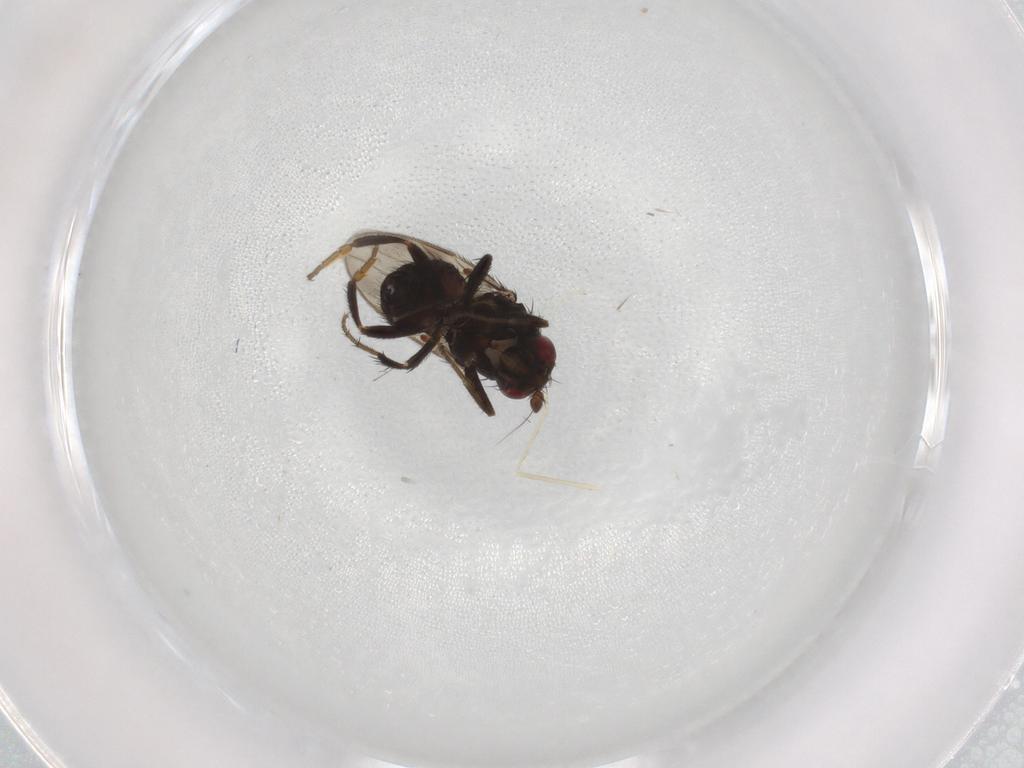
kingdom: Animalia
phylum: Arthropoda
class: Insecta
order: Diptera
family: Sphaeroceridae
